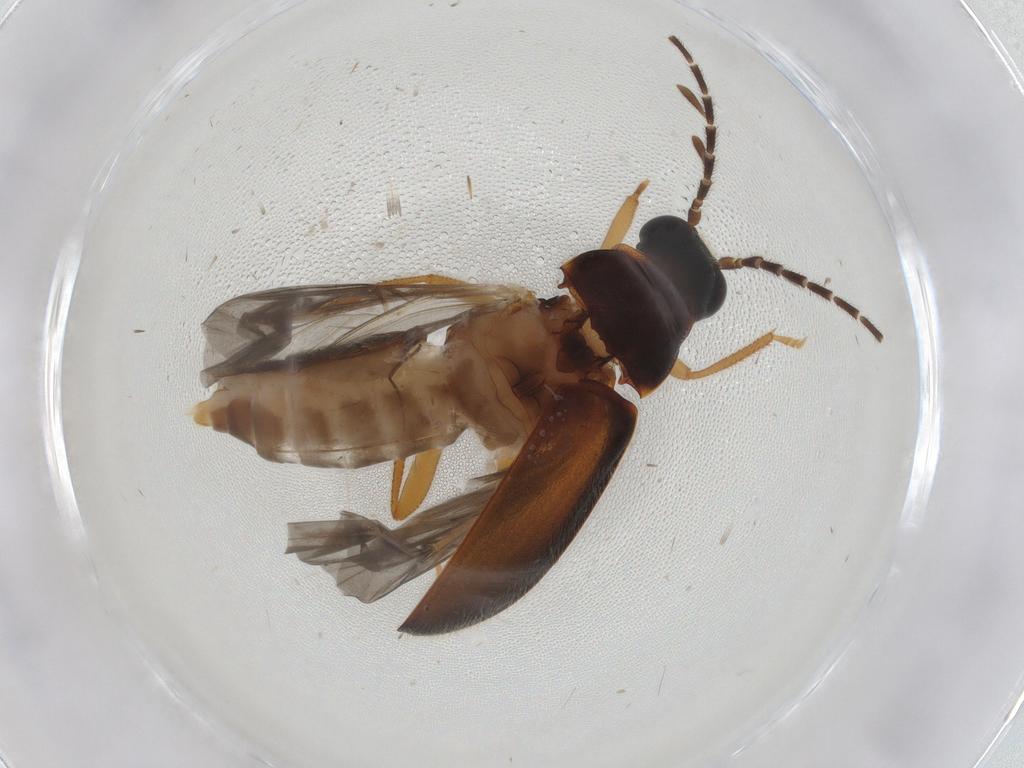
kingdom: Animalia
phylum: Arthropoda
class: Insecta
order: Coleoptera
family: Ptilodactylidae
